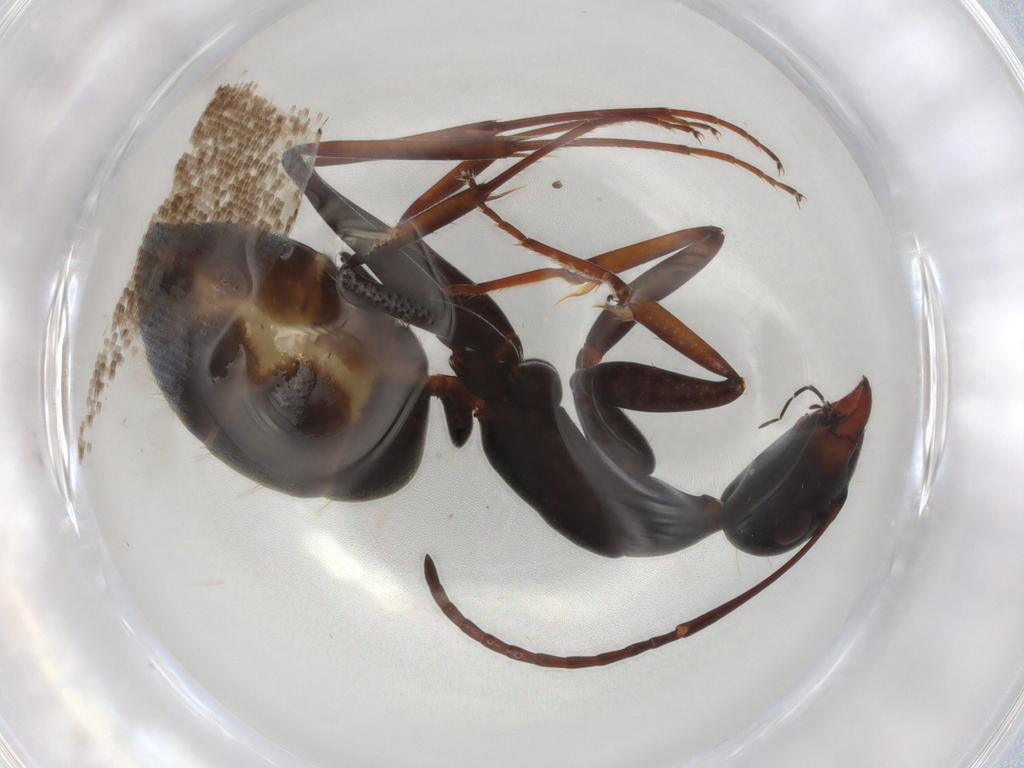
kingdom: Animalia
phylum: Arthropoda
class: Insecta
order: Hymenoptera
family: Formicidae
